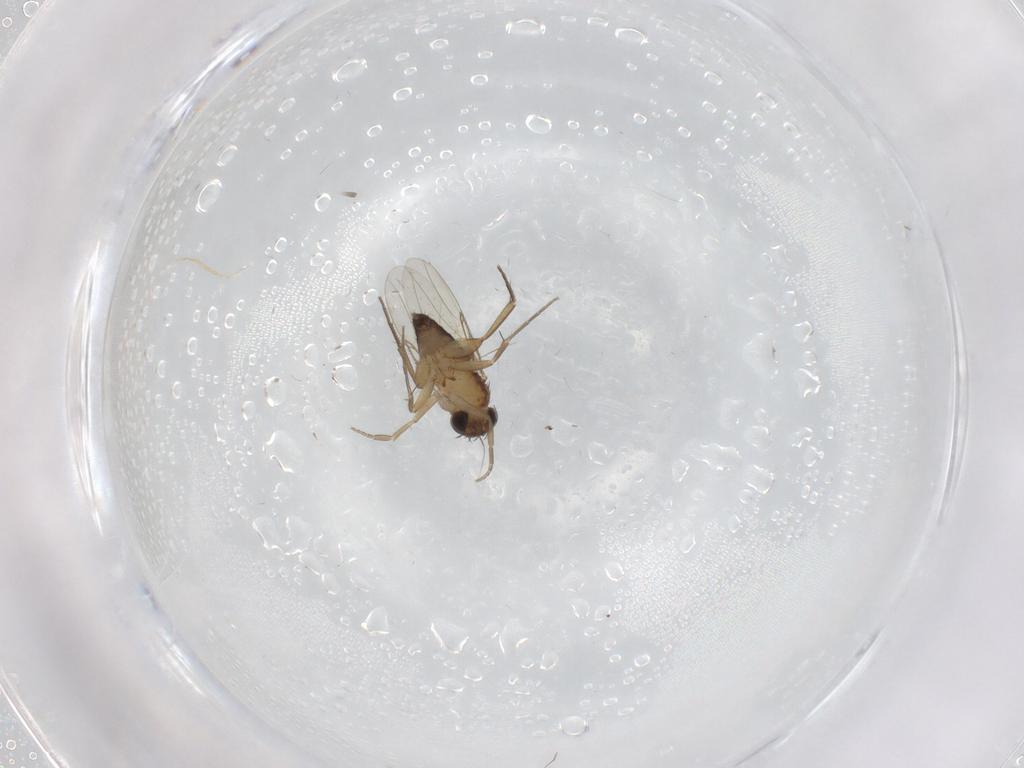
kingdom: Animalia
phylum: Arthropoda
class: Insecta
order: Diptera
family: Phoridae
